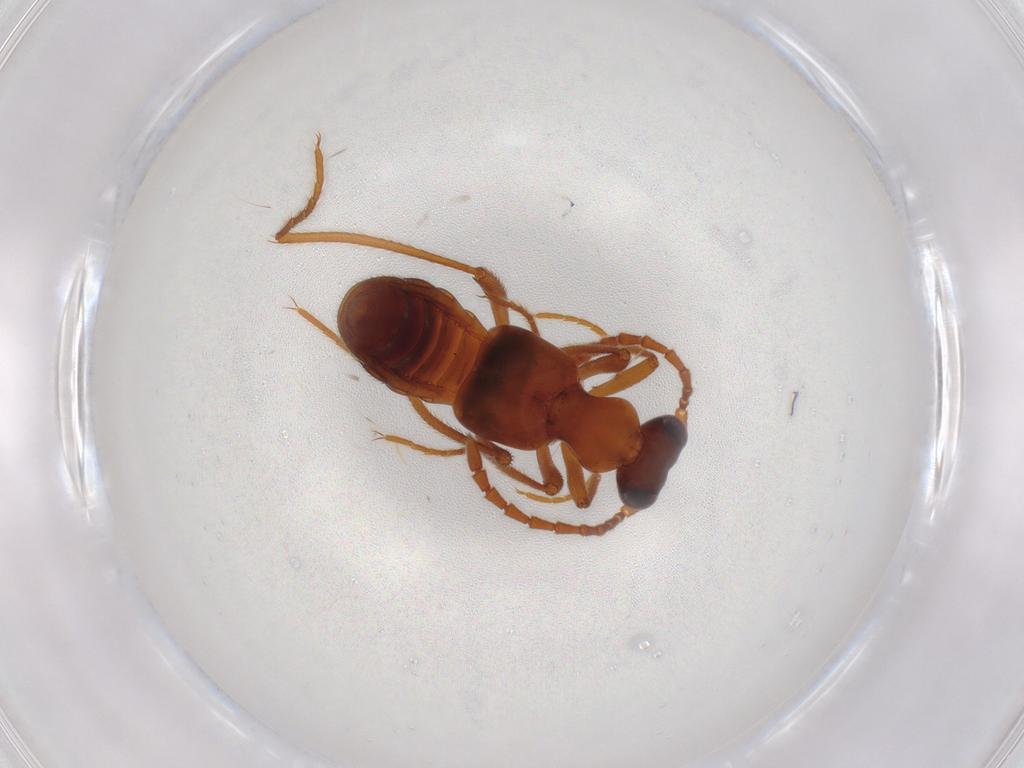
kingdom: Animalia
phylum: Arthropoda
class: Insecta
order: Coleoptera
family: Staphylinidae
